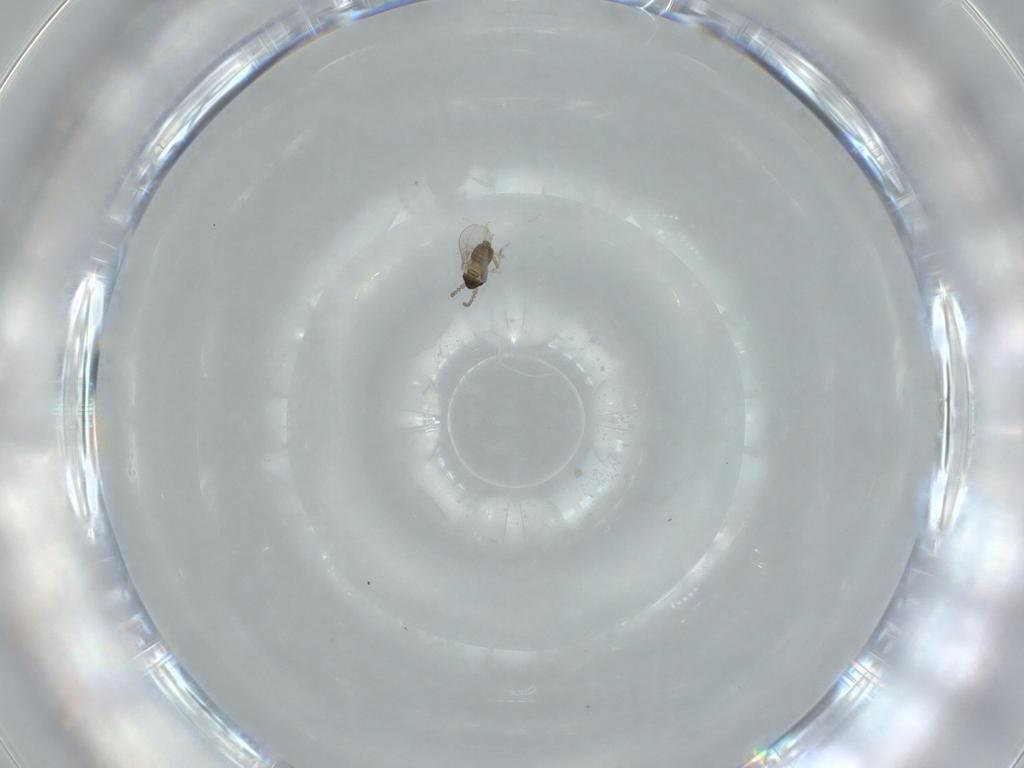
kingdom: Animalia
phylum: Arthropoda
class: Insecta
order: Diptera
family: Cecidomyiidae
